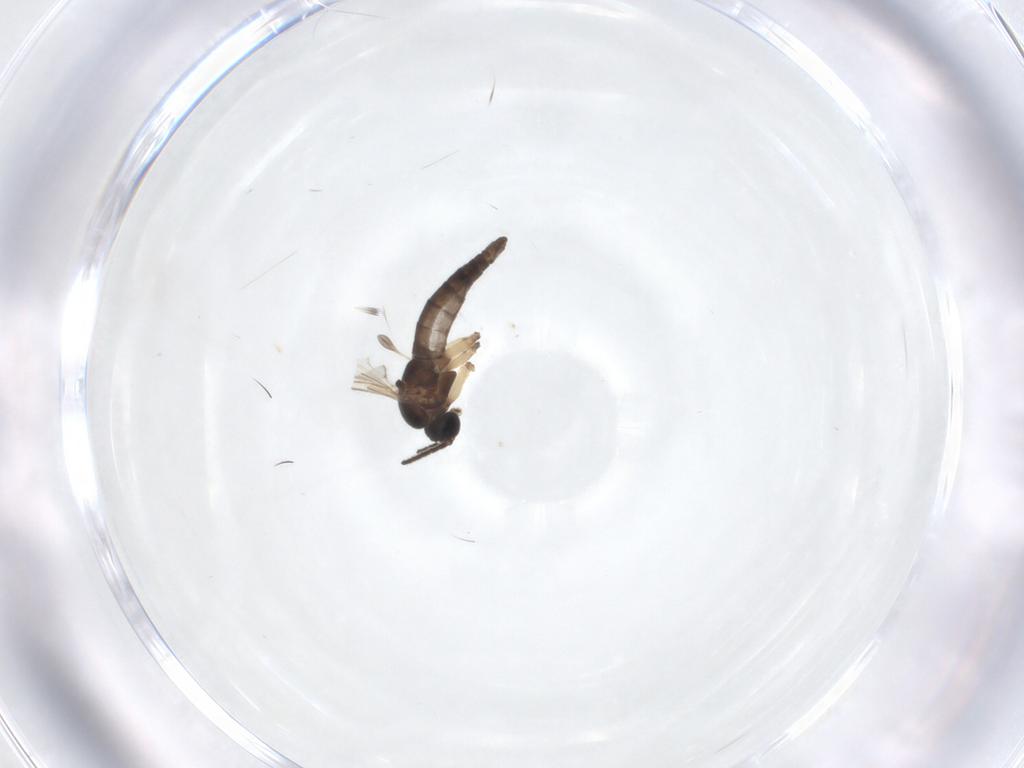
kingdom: Animalia
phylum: Arthropoda
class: Insecta
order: Diptera
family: Sciaridae
